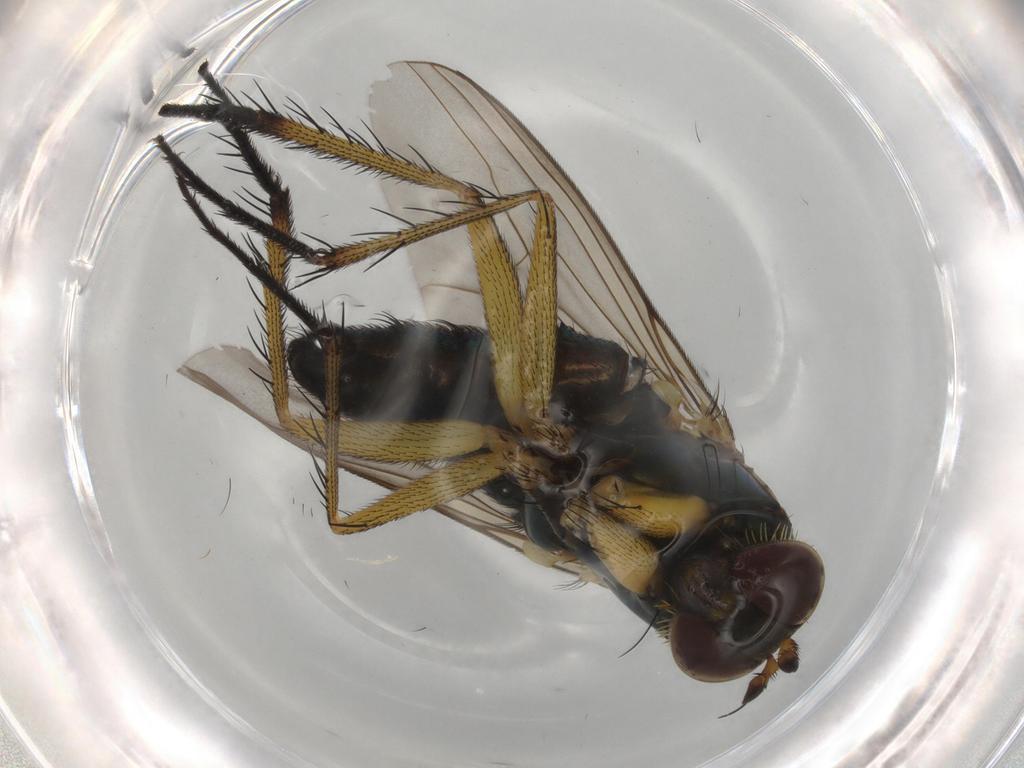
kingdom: Animalia
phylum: Arthropoda
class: Insecta
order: Diptera
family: Dolichopodidae
